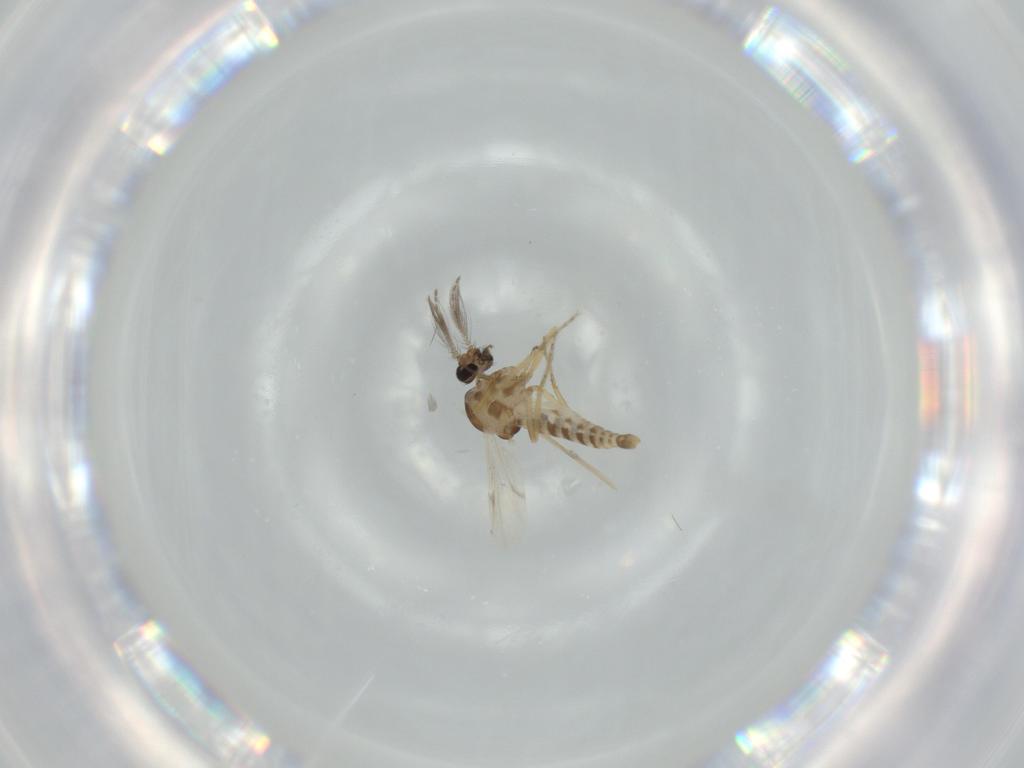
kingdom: Animalia
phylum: Arthropoda
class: Insecta
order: Diptera
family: Ceratopogonidae
